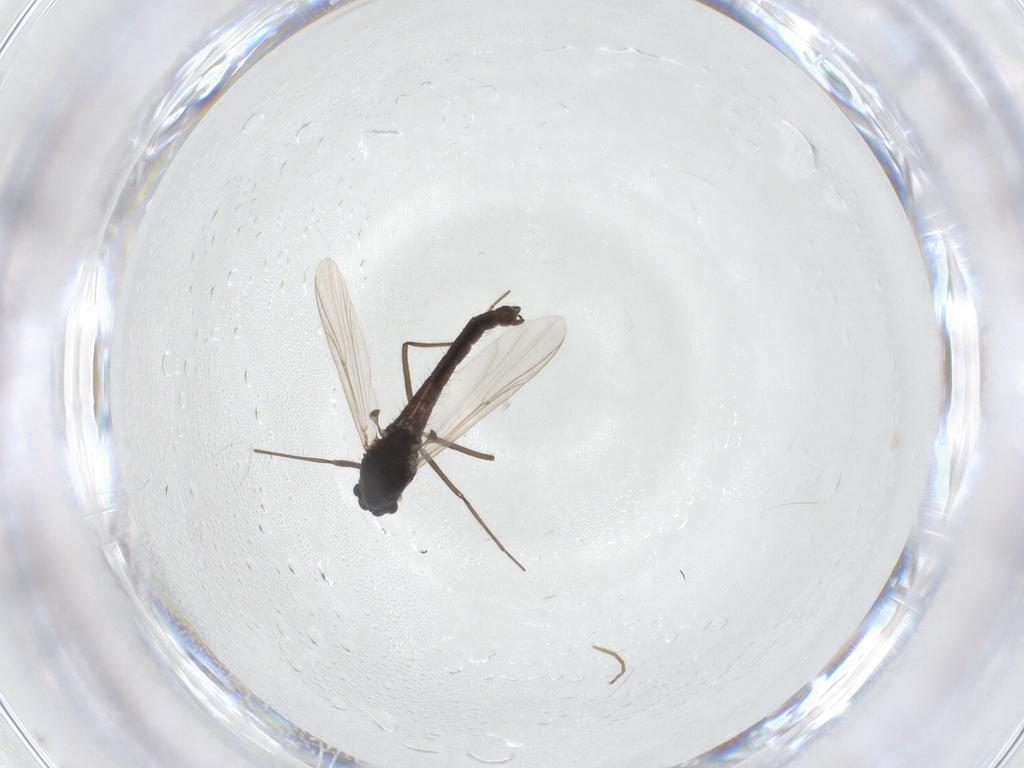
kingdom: Animalia
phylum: Arthropoda
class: Insecta
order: Diptera
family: Chironomidae
